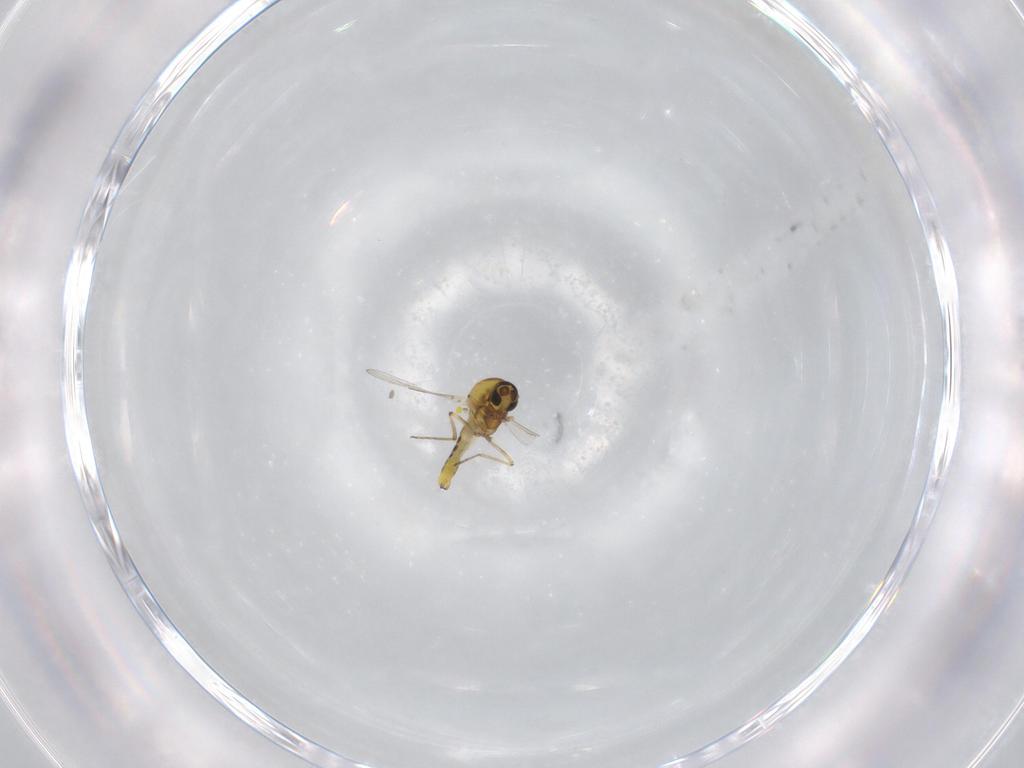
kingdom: Animalia
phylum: Arthropoda
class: Insecta
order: Diptera
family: Ceratopogonidae
